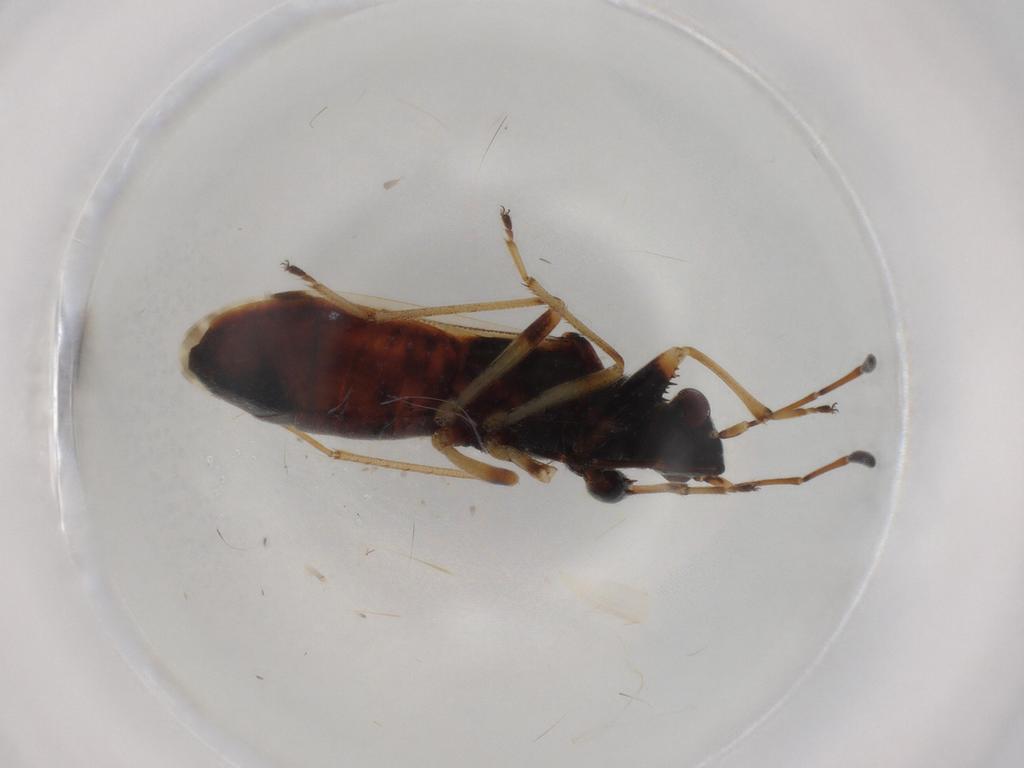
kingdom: Animalia
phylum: Arthropoda
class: Insecta
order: Hemiptera
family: Rhyparochromidae
